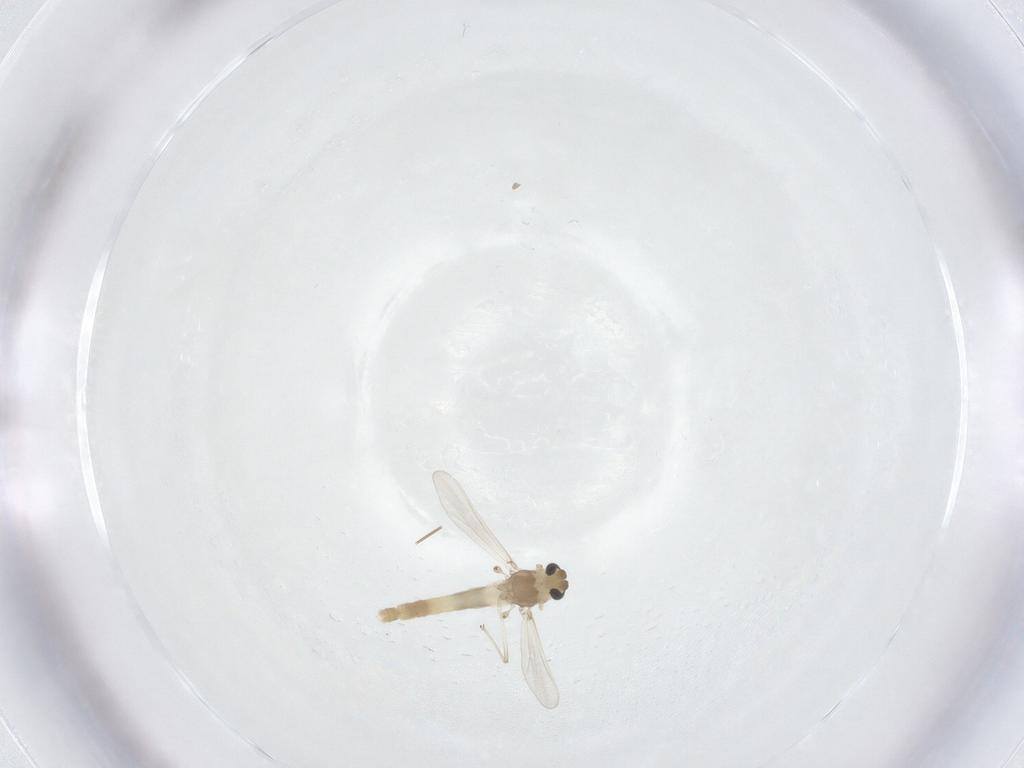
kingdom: Animalia
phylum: Arthropoda
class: Insecta
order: Diptera
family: Chironomidae
